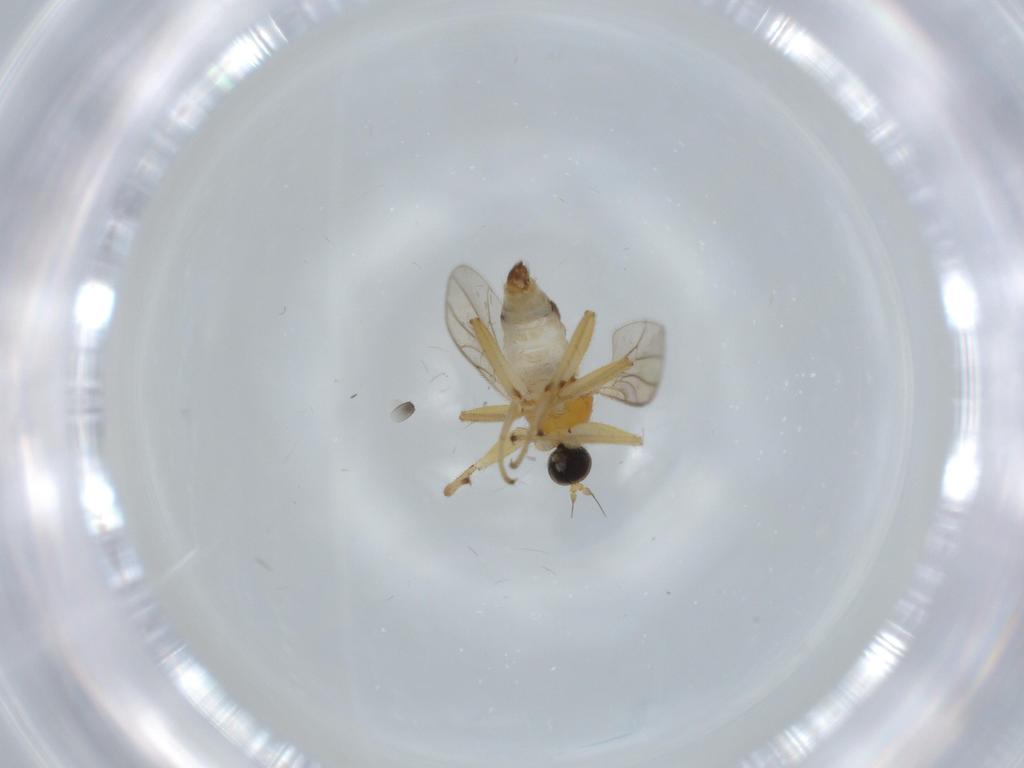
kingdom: Animalia
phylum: Arthropoda
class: Insecta
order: Diptera
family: Hybotidae
